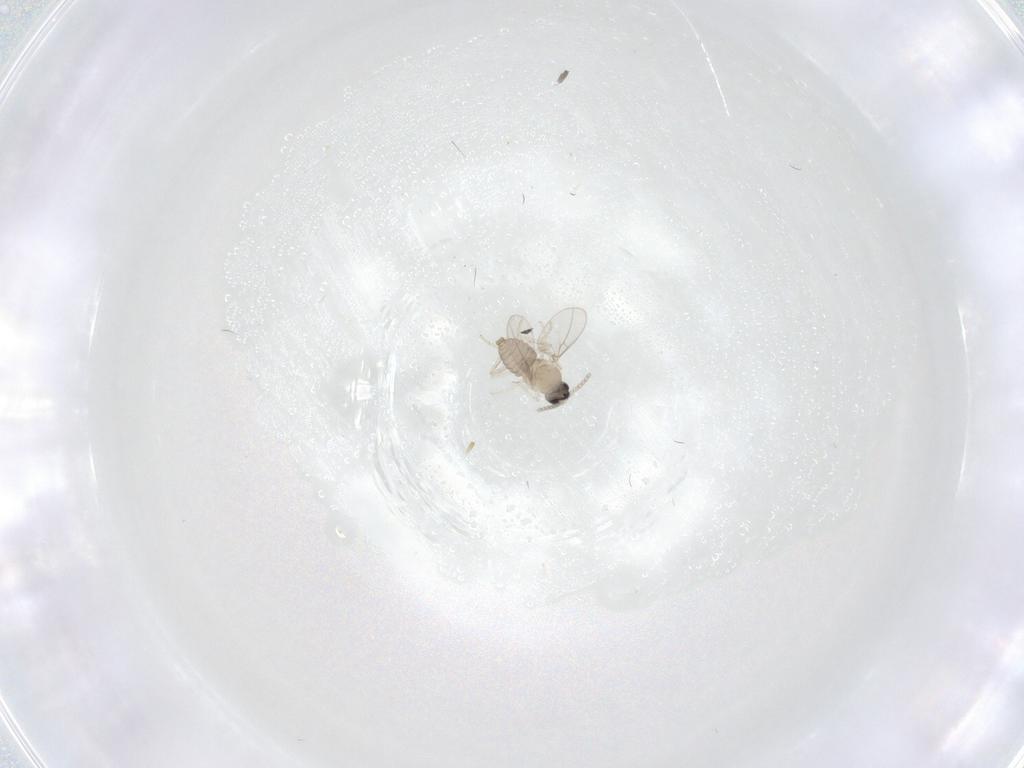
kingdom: Animalia
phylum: Arthropoda
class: Insecta
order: Diptera
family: Cecidomyiidae
